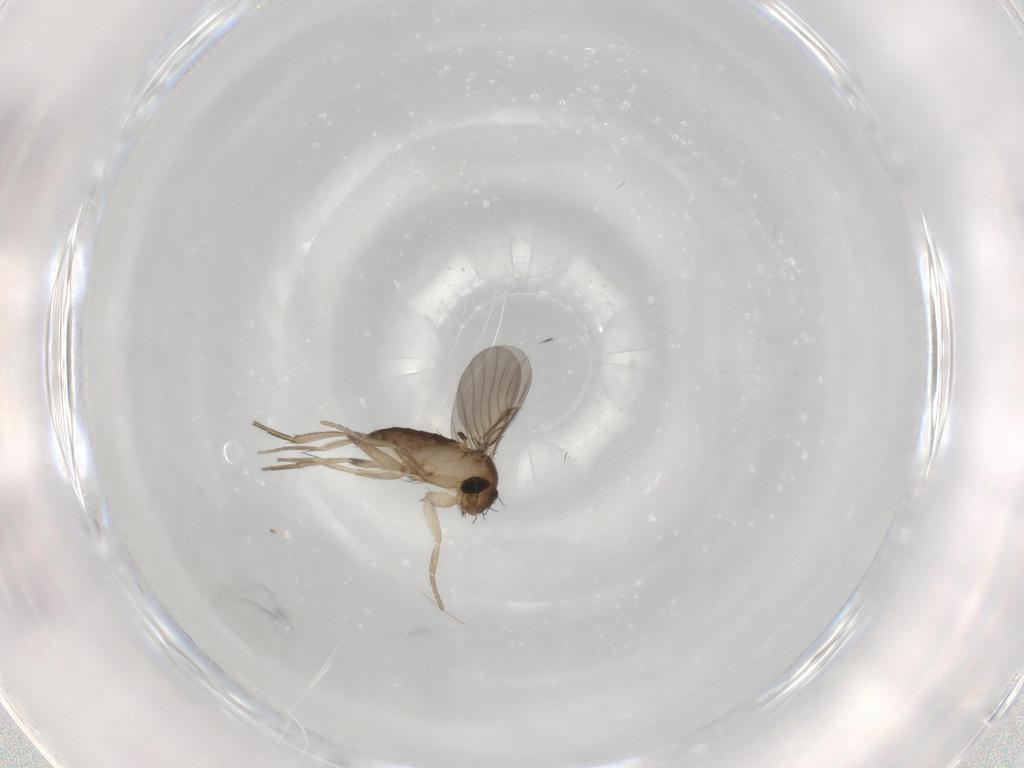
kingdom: Animalia
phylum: Arthropoda
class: Insecta
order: Diptera
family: Phoridae
